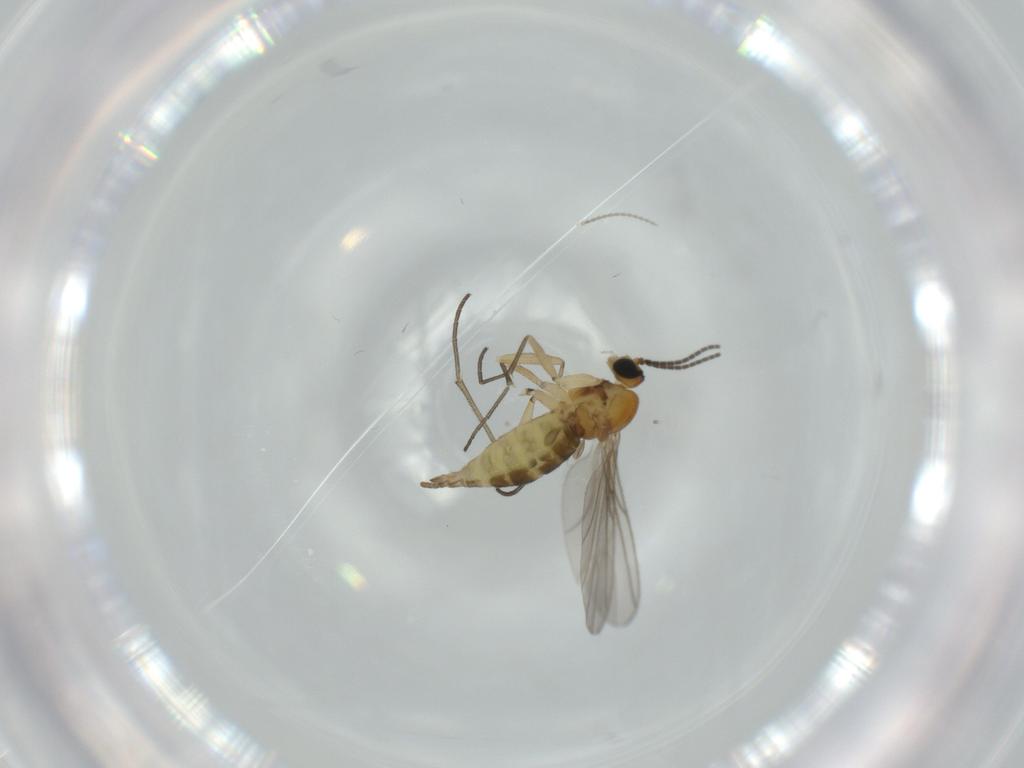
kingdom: Animalia
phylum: Arthropoda
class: Insecta
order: Diptera
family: Sciaridae
